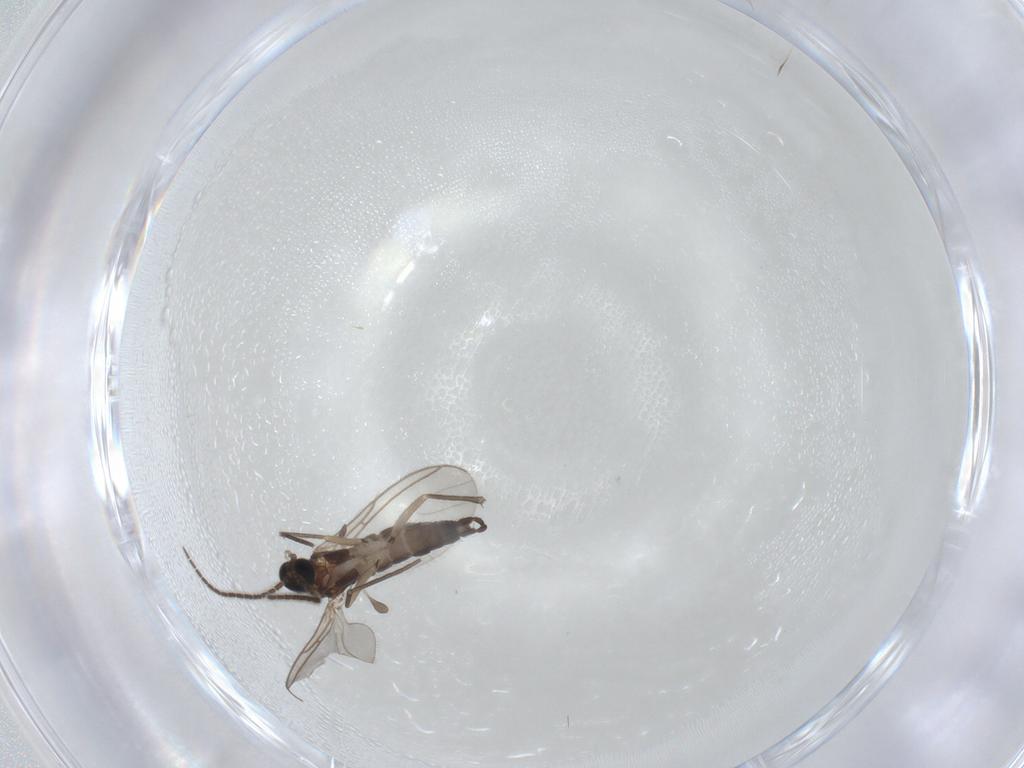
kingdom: Animalia
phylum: Arthropoda
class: Insecta
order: Diptera
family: Sciaridae
